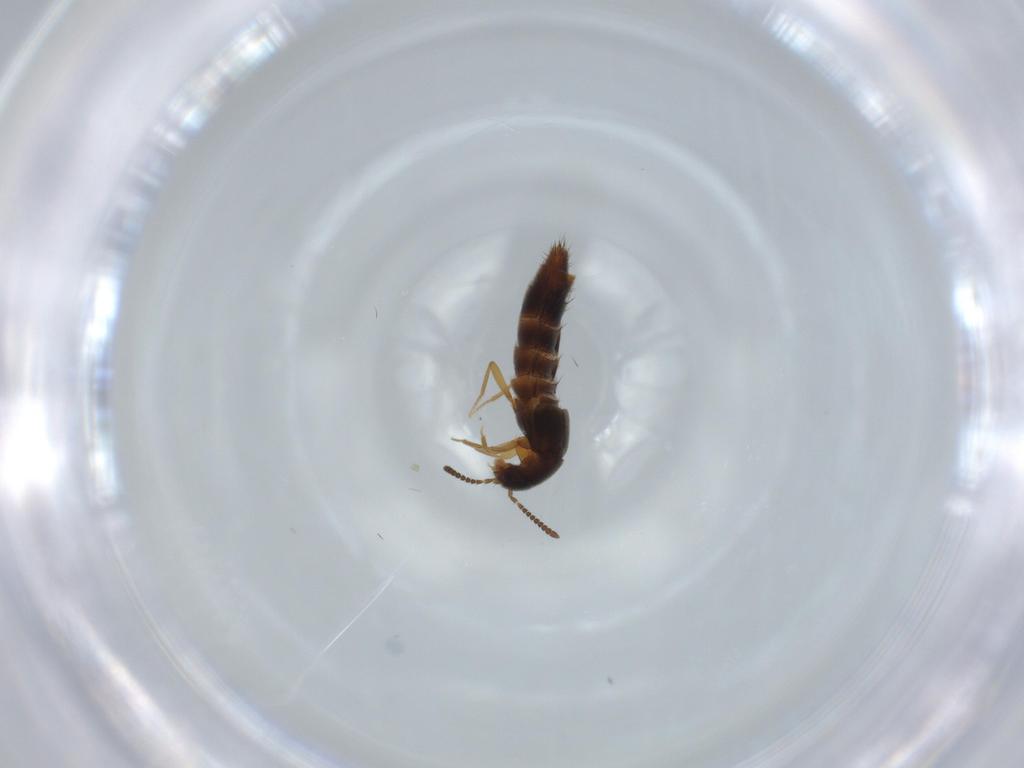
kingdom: Animalia
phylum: Arthropoda
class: Insecta
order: Coleoptera
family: Staphylinidae
